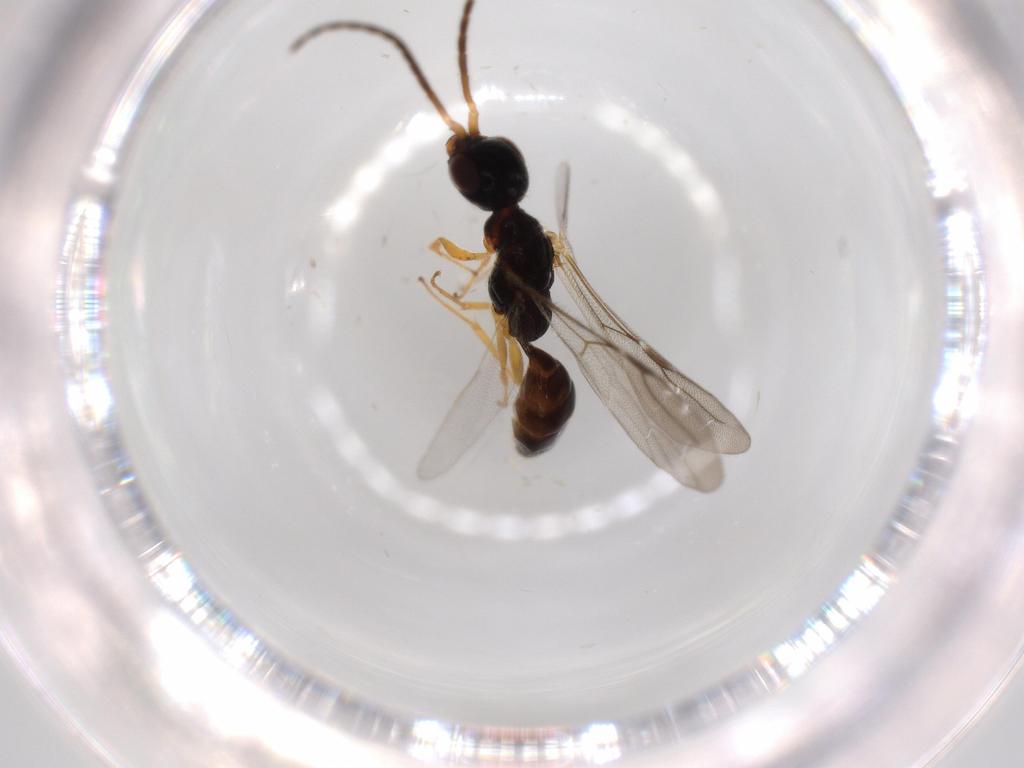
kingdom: Animalia
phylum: Arthropoda
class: Insecta
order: Hymenoptera
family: Bethylidae
